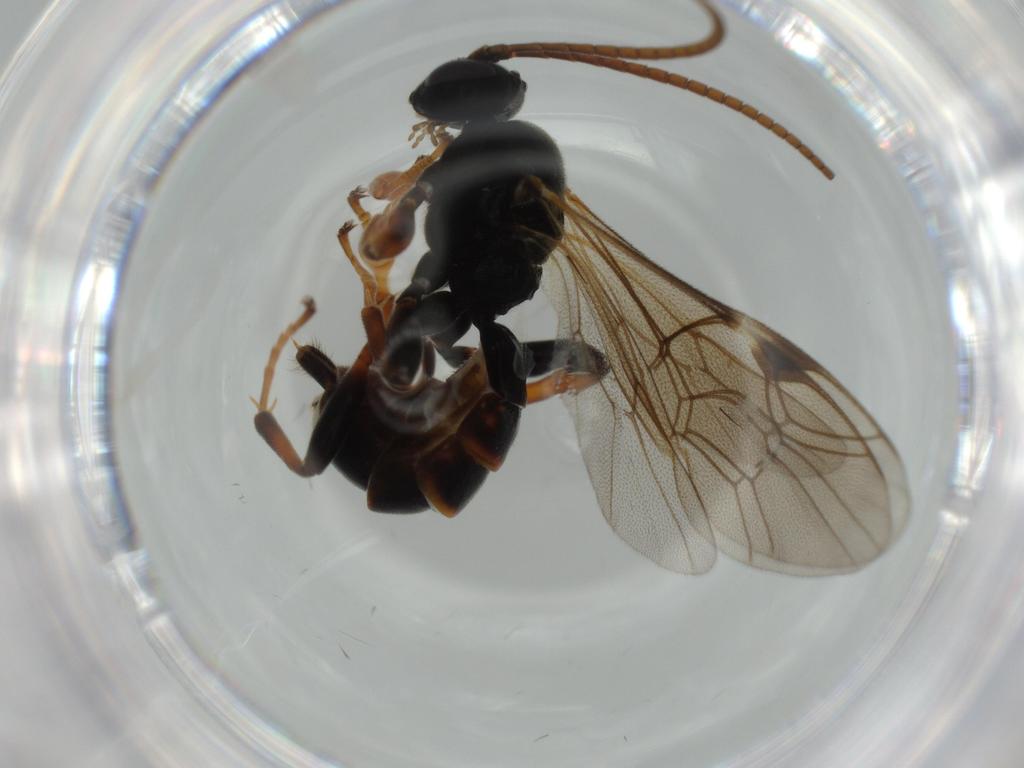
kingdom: Animalia
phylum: Arthropoda
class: Insecta
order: Hymenoptera
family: Ichneumonidae
